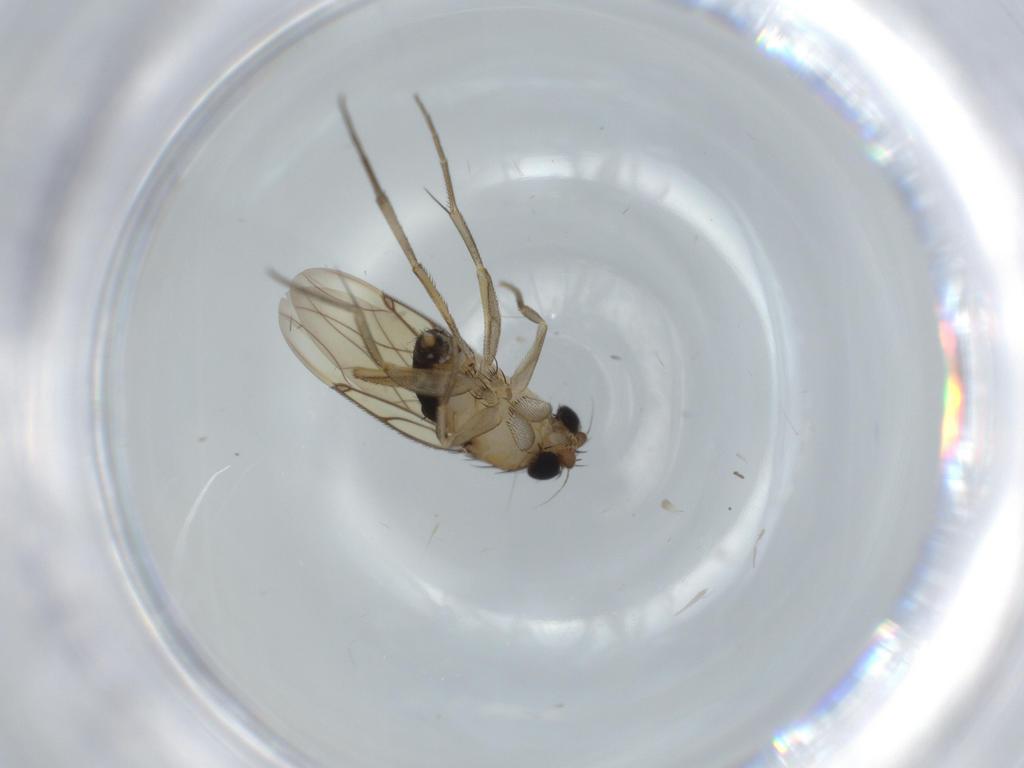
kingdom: Animalia
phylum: Arthropoda
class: Insecta
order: Diptera
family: Sciaridae
